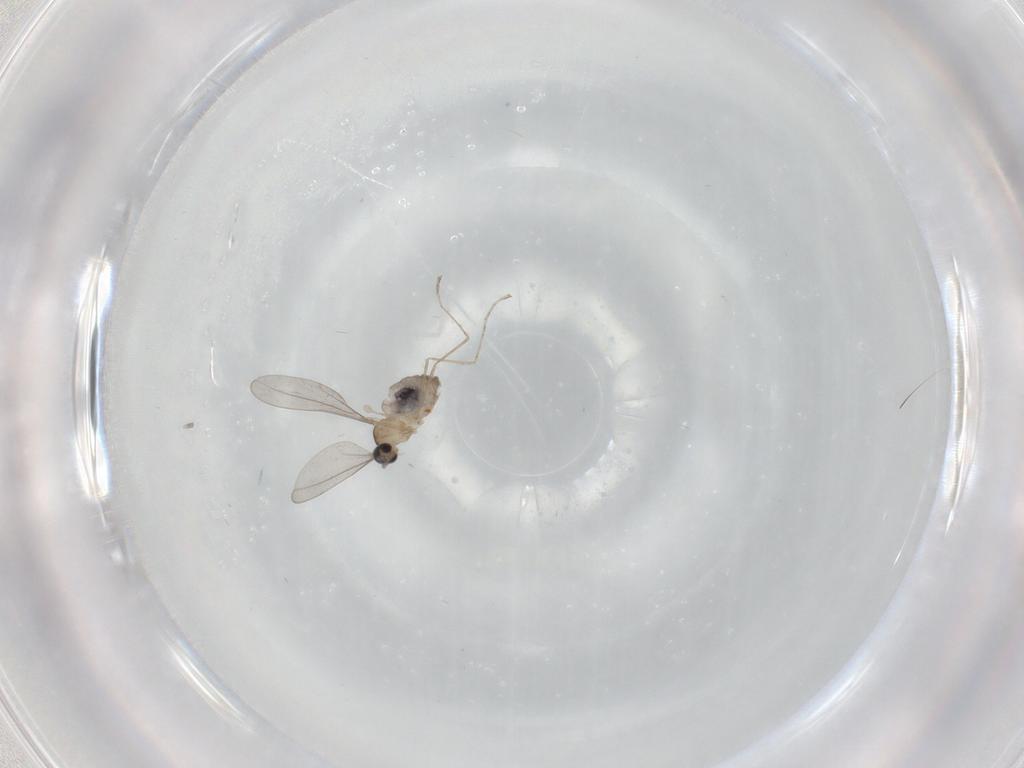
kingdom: Animalia
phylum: Arthropoda
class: Insecta
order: Diptera
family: Cecidomyiidae
